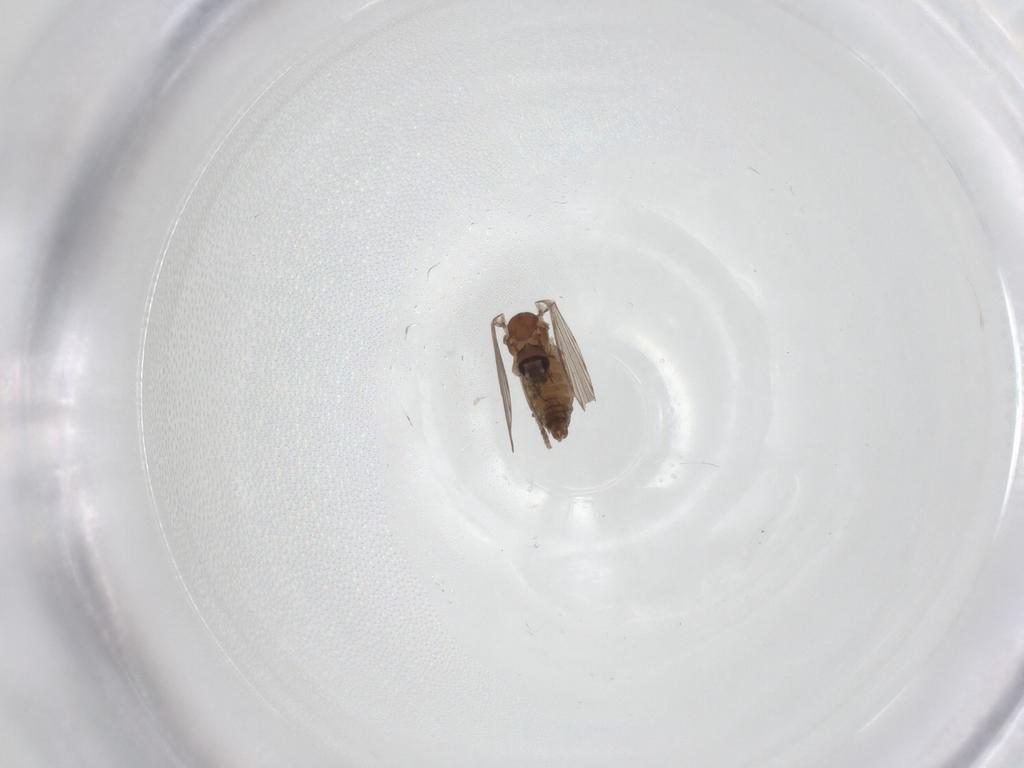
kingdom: Animalia
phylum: Arthropoda
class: Insecta
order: Diptera
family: Psychodidae
